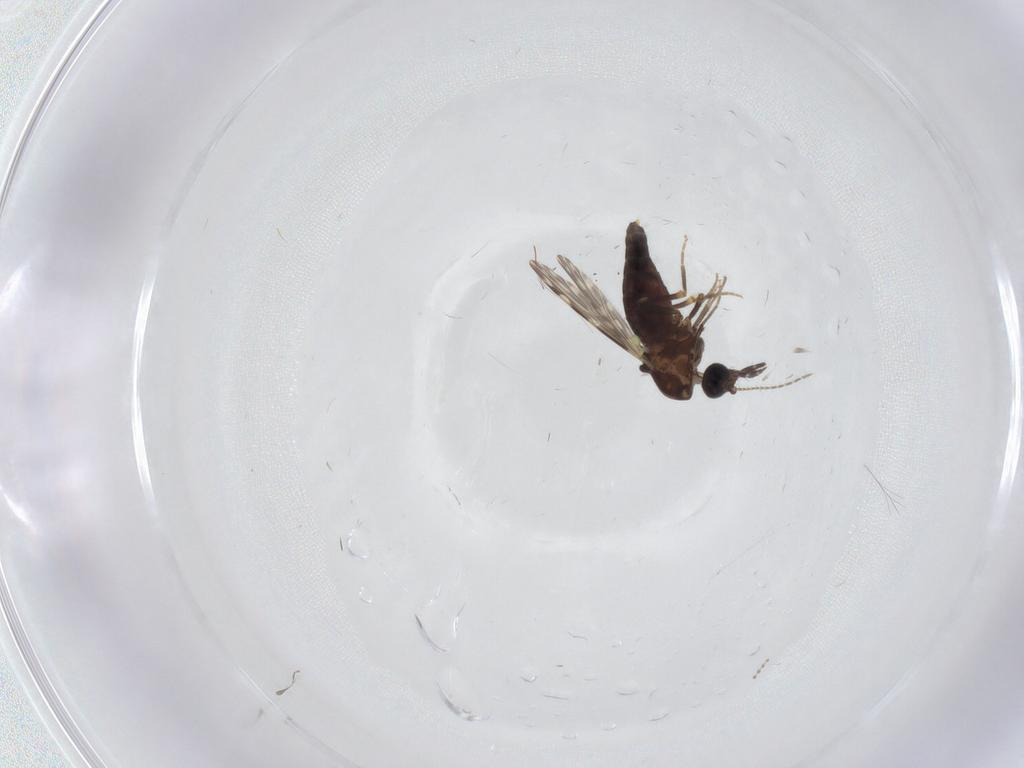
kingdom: Animalia
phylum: Arthropoda
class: Insecta
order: Diptera
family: Cecidomyiidae
